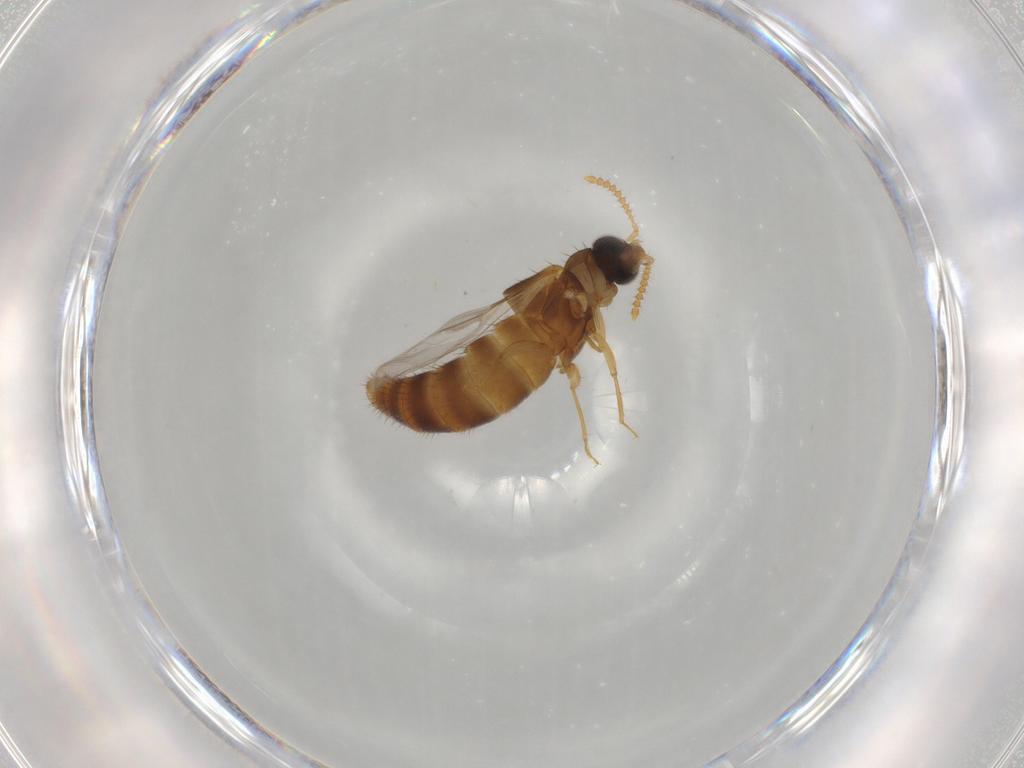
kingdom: Animalia
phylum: Arthropoda
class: Insecta
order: Coleoptera
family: Staphylinidae
